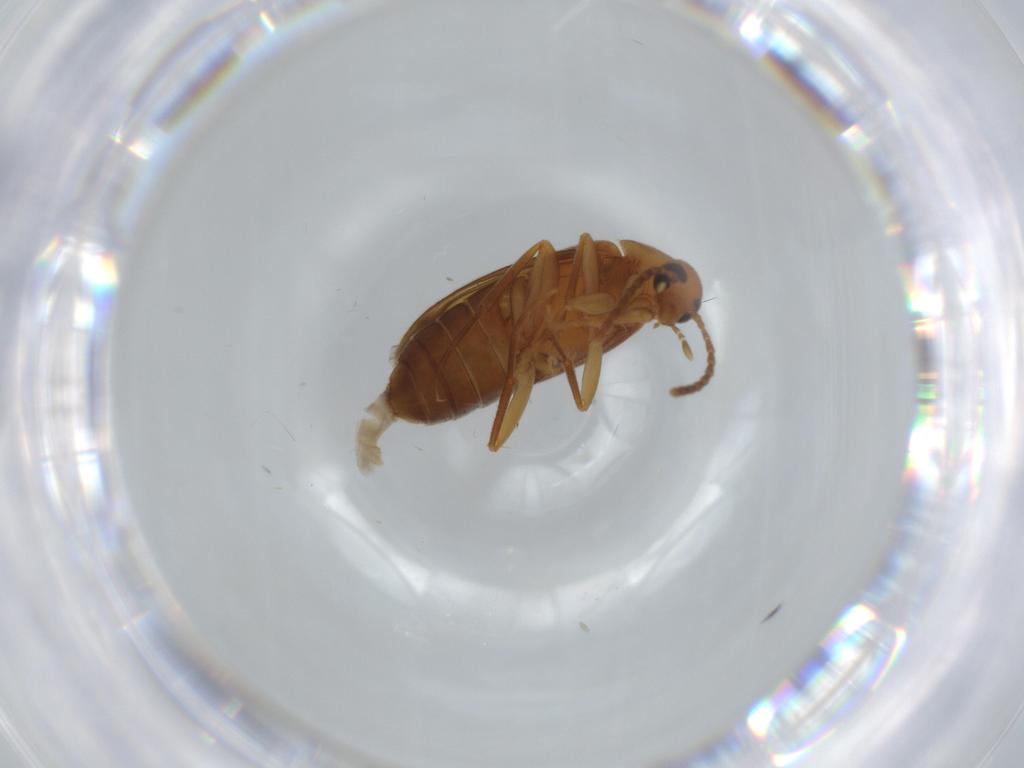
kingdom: Animalia
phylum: Arthropoda
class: Insecta
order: Coleoptera
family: Scraptiidae
